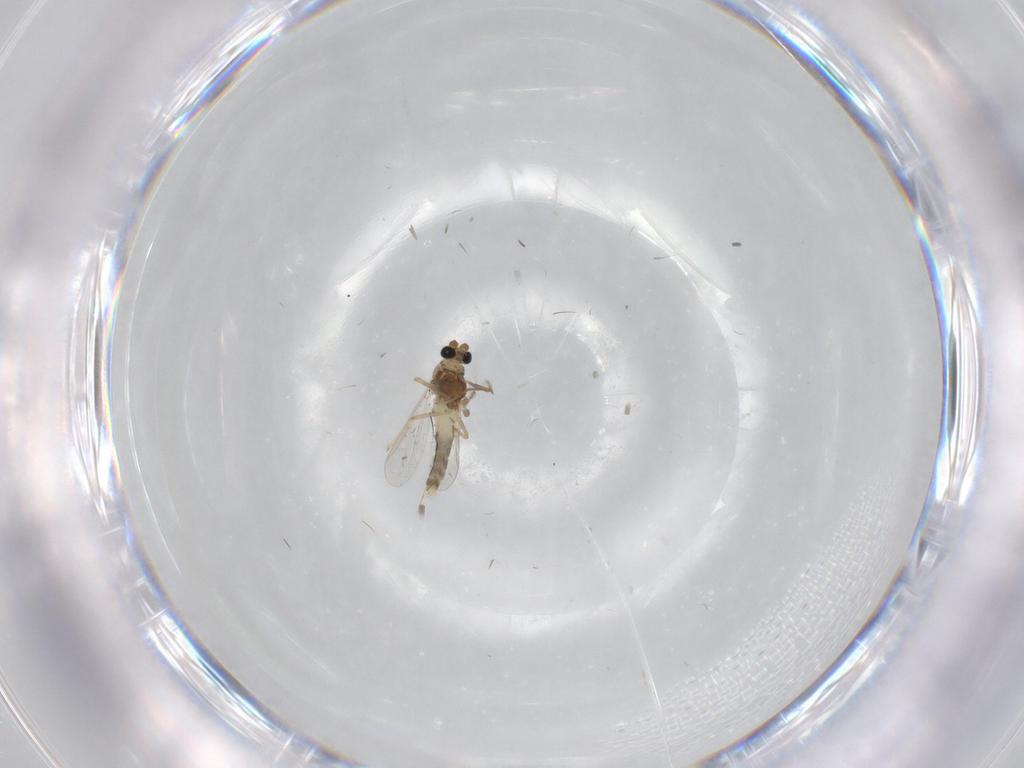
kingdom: Animalia
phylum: Arthropoda
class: Insecta
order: Diptera
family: Chironomidae
